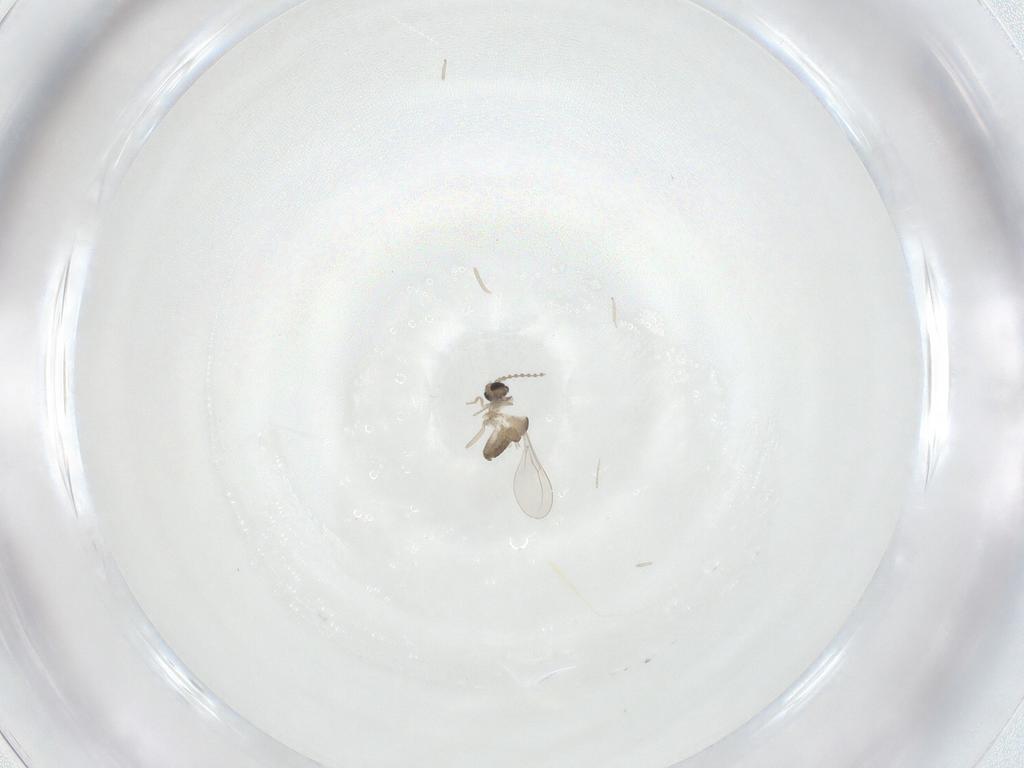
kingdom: Animalia
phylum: Arthropoda
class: Insecta
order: Diptera
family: Cecidomyiidae
